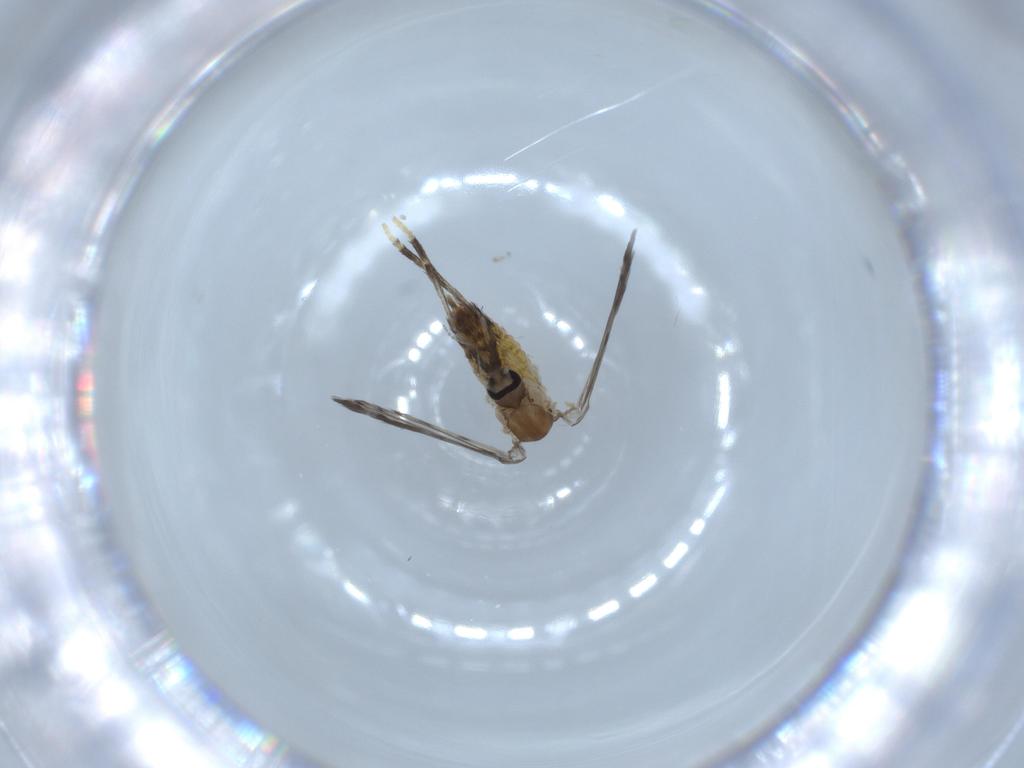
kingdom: Animalia
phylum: Arthropoda
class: Insecta
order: Diptera
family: Psychodidae
